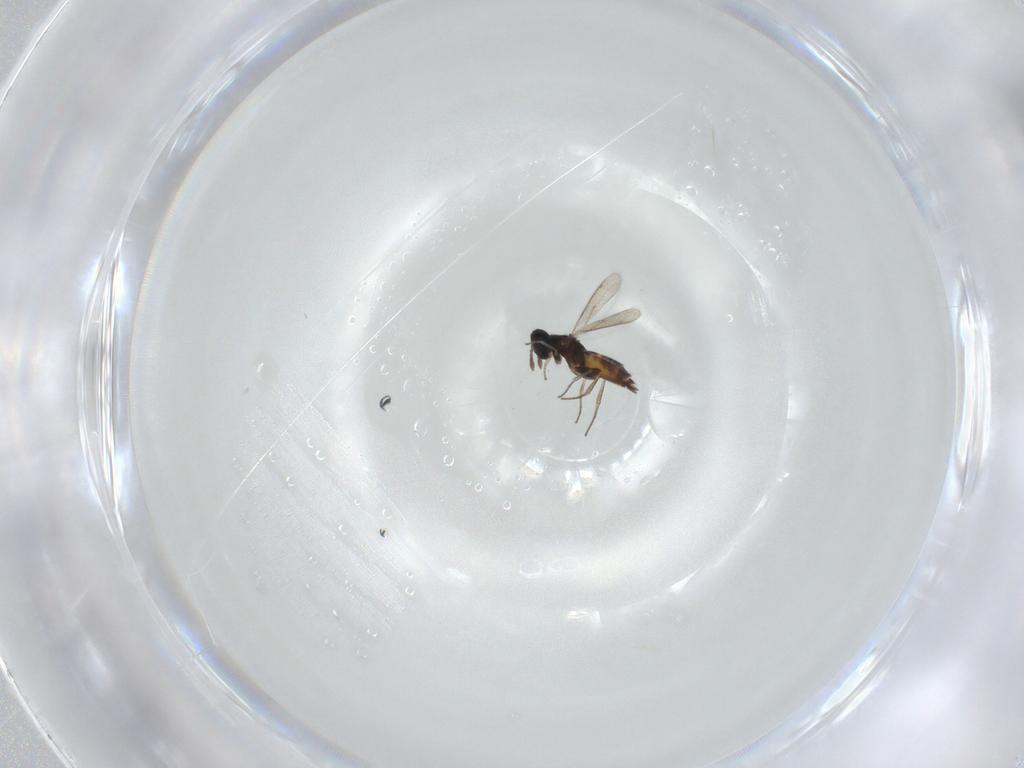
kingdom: Animalia
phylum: Arthropoda
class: Insecta
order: Hymenoptera
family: Eulophidae
